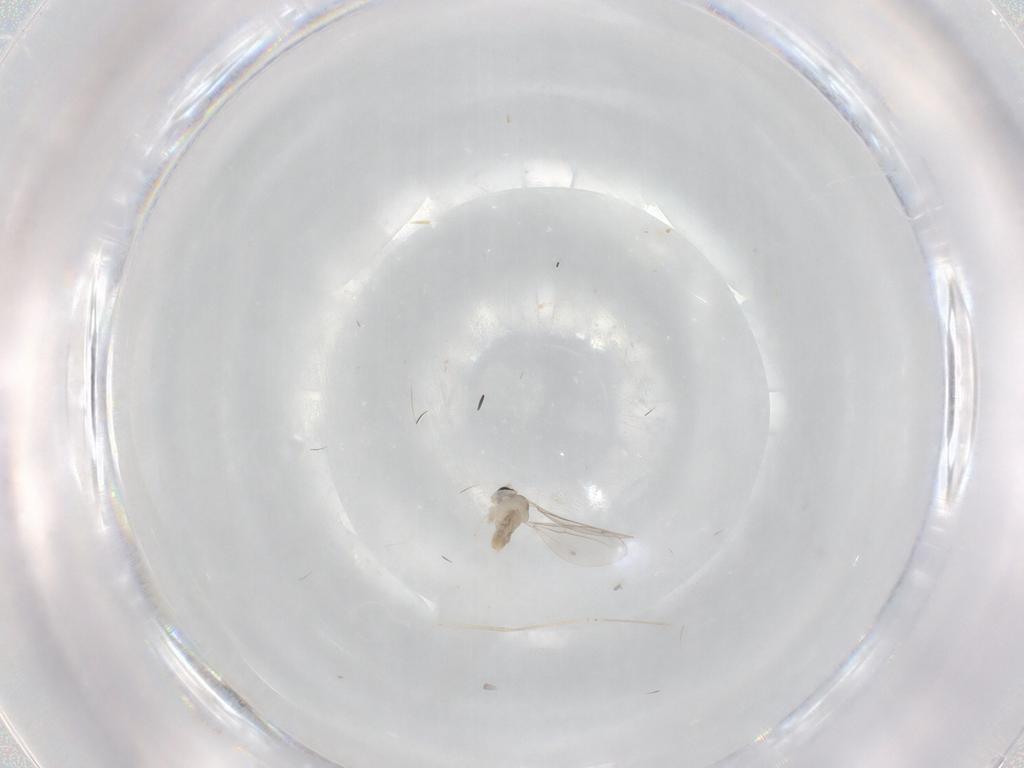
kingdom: Animalia
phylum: Arthropoda
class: Insecta
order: Diptera
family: Cecidomyiidae
